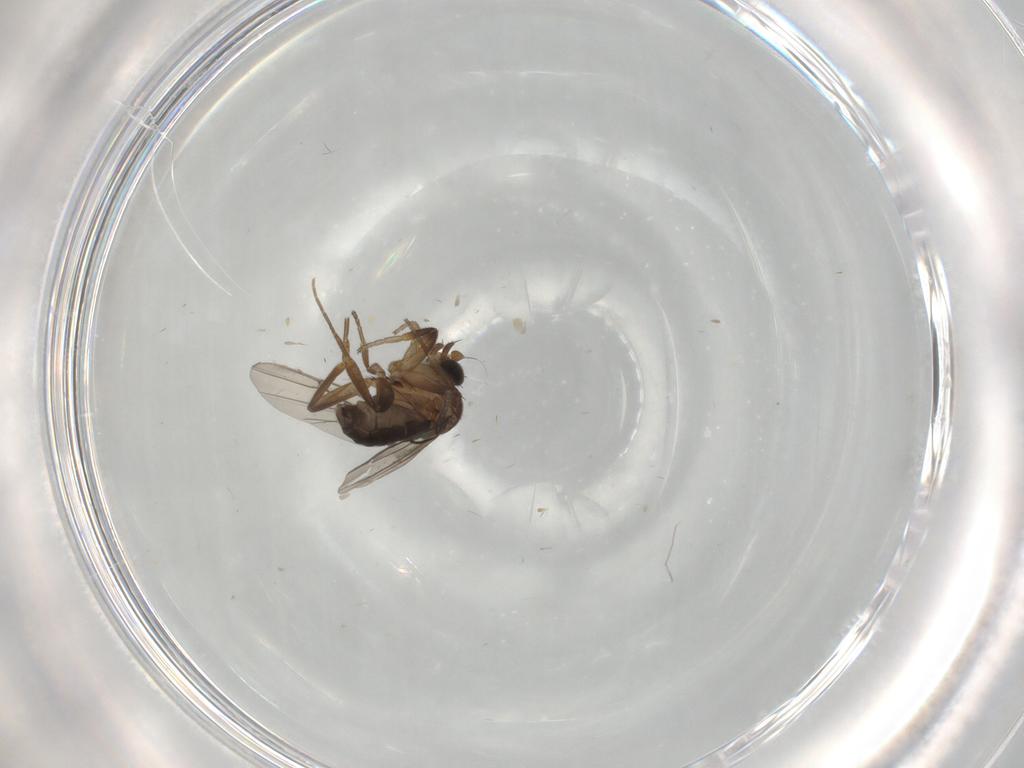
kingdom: Animalia
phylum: Arthropoda
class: Insecta
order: Diptera
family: Phoridae
